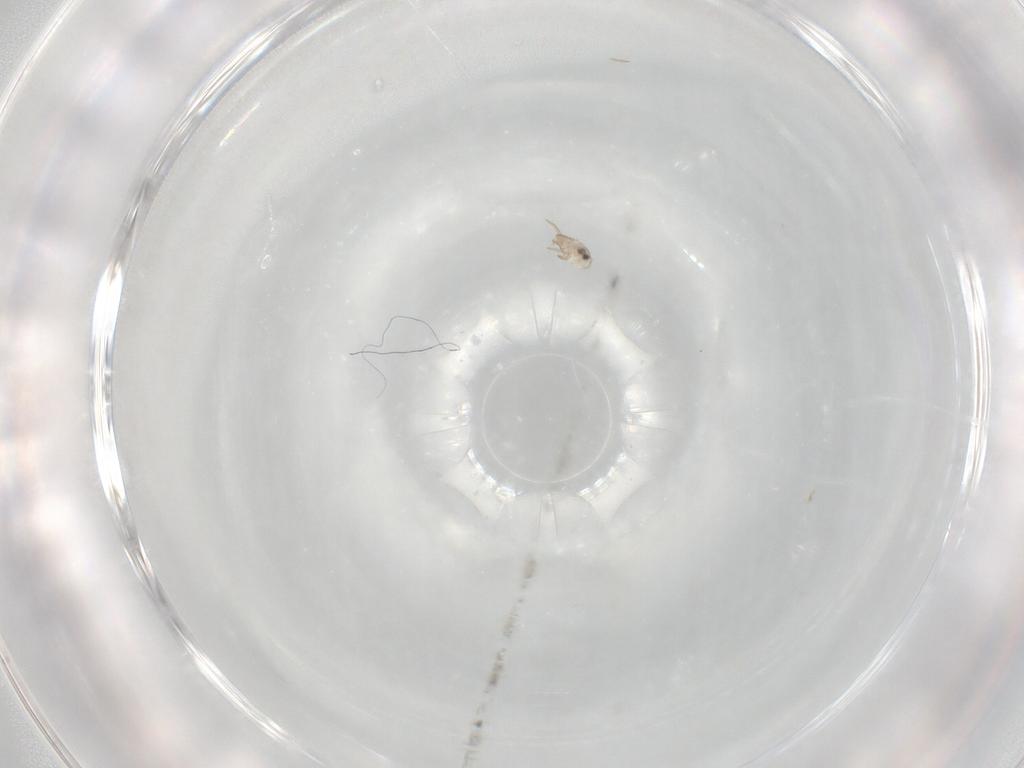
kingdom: Animalia
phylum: Arthropoda
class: Arachnida
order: Sarcoptiformes
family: Ceratoppiidae
